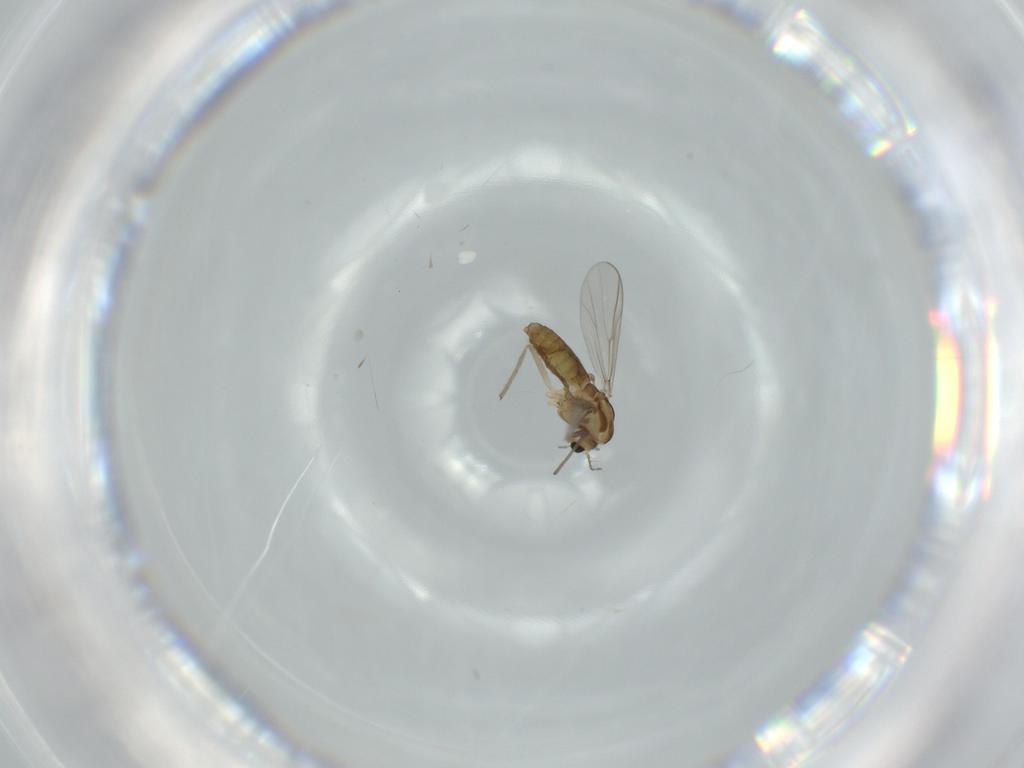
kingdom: Animalia
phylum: Arthropoda
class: Insecta
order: Diptera
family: Chironomidae
